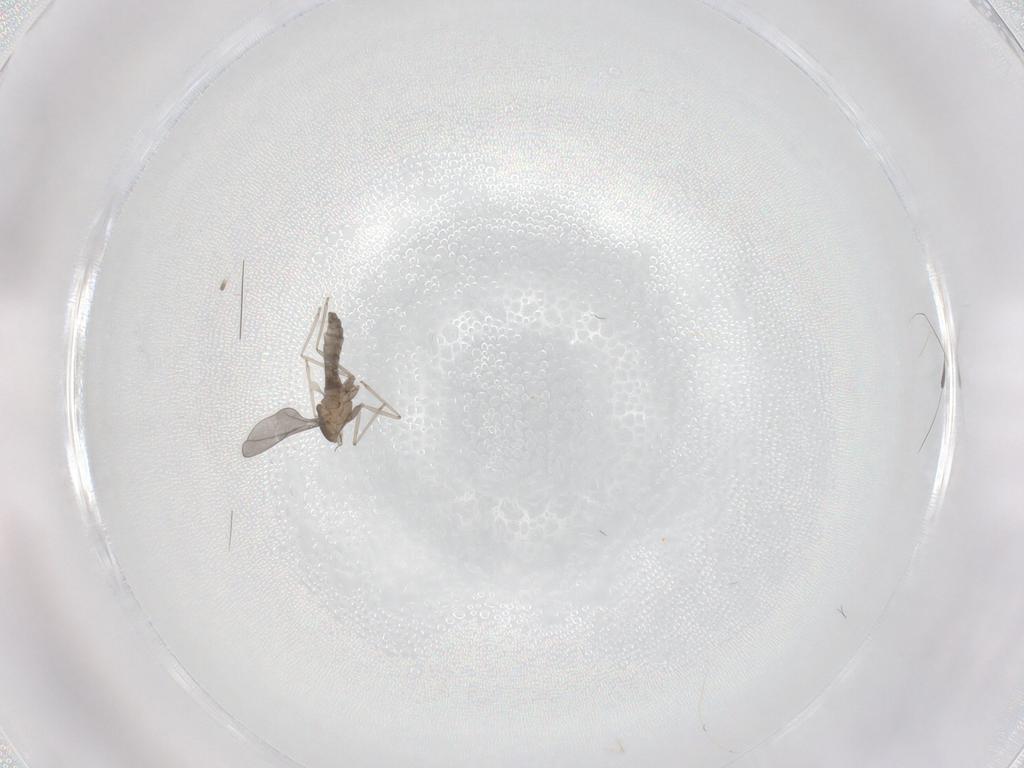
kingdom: Animalia
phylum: Arthropoda
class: Insecta
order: Diptera
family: Cecidomyiidae
